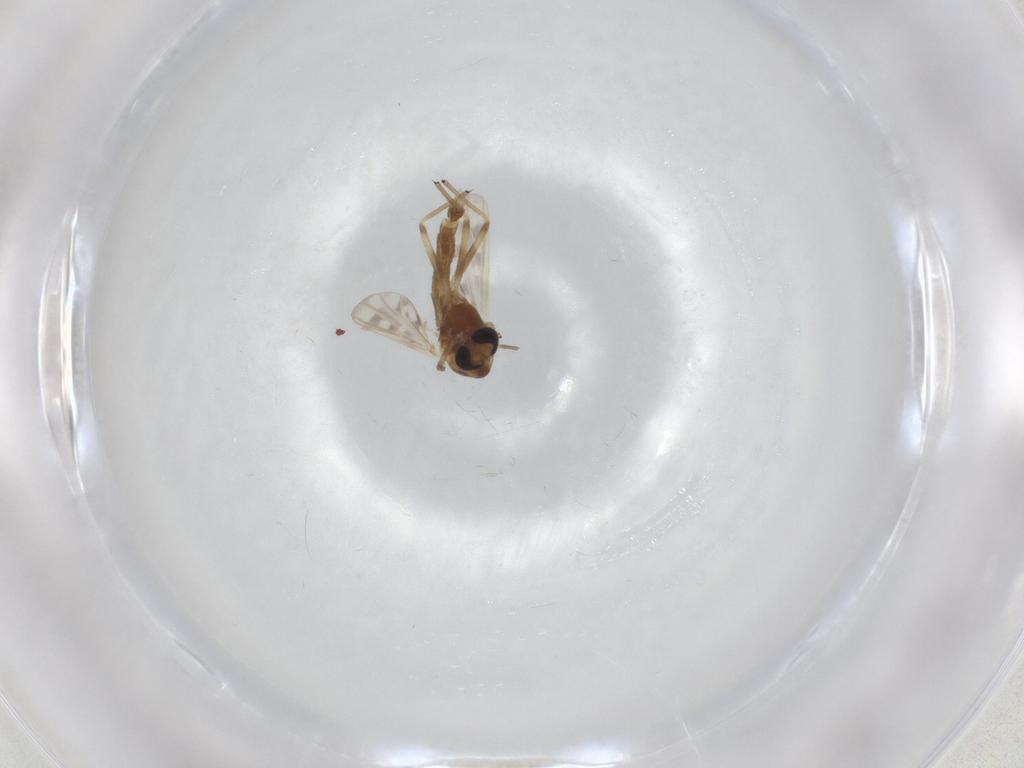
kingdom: Animalia
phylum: Arthropoda
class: Insecta
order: Diptera
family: Chironomidae
